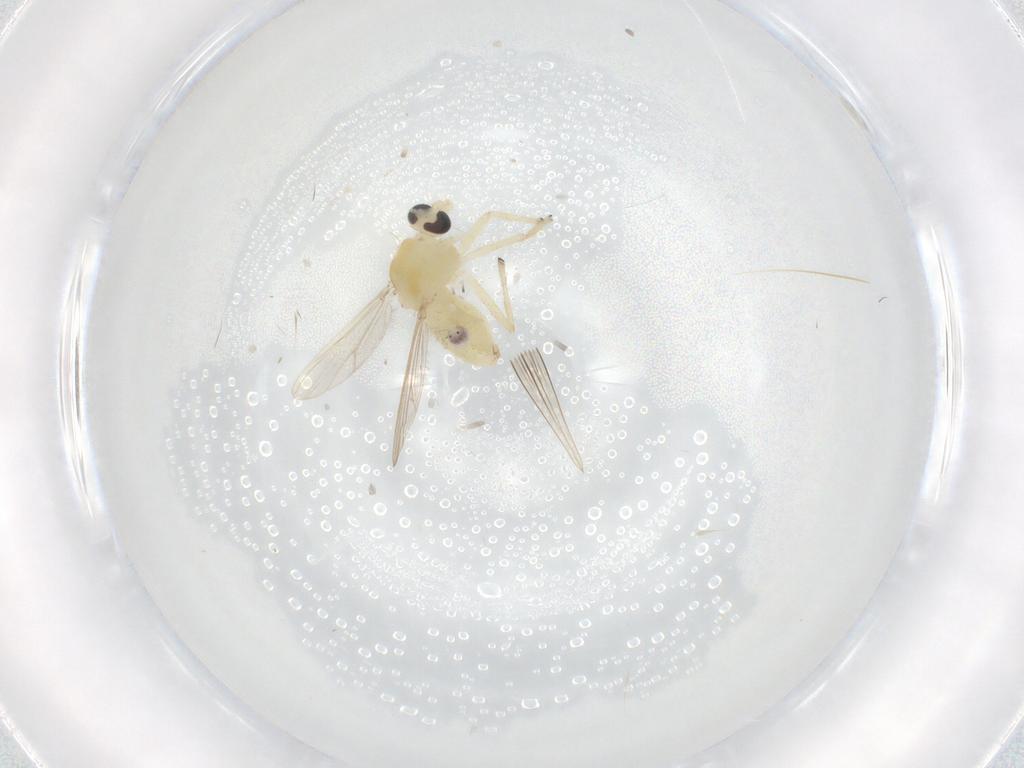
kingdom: Animalia
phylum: Arthropoda
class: Insecta
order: Diptera
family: Chironomidae
